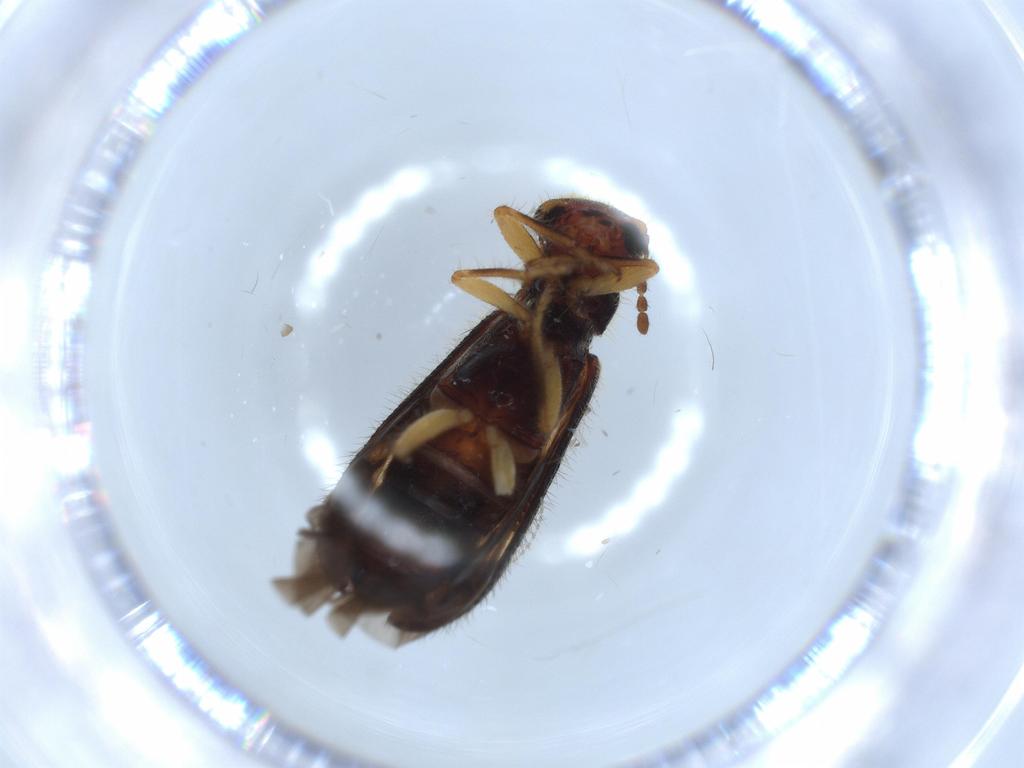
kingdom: Animalia
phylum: Arthropoda
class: Insecta
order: Coleoptera
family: Cleridae
